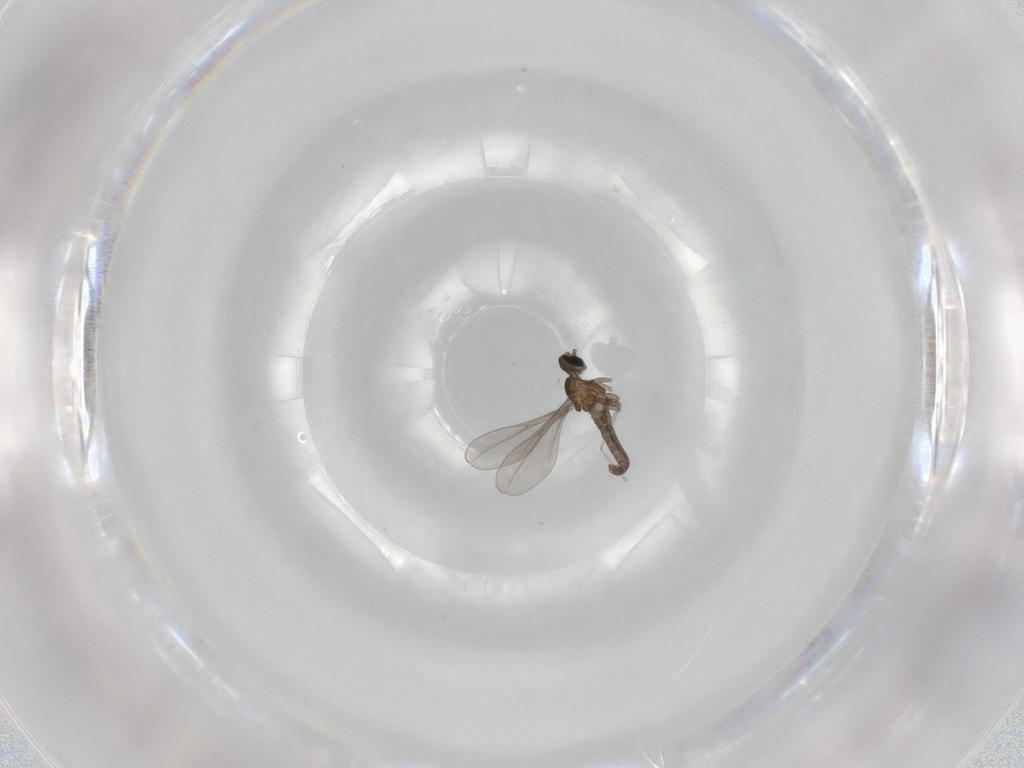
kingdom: Animalia
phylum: Arthropoda
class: Insecta
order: Diptera
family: Cecidomyiidae
